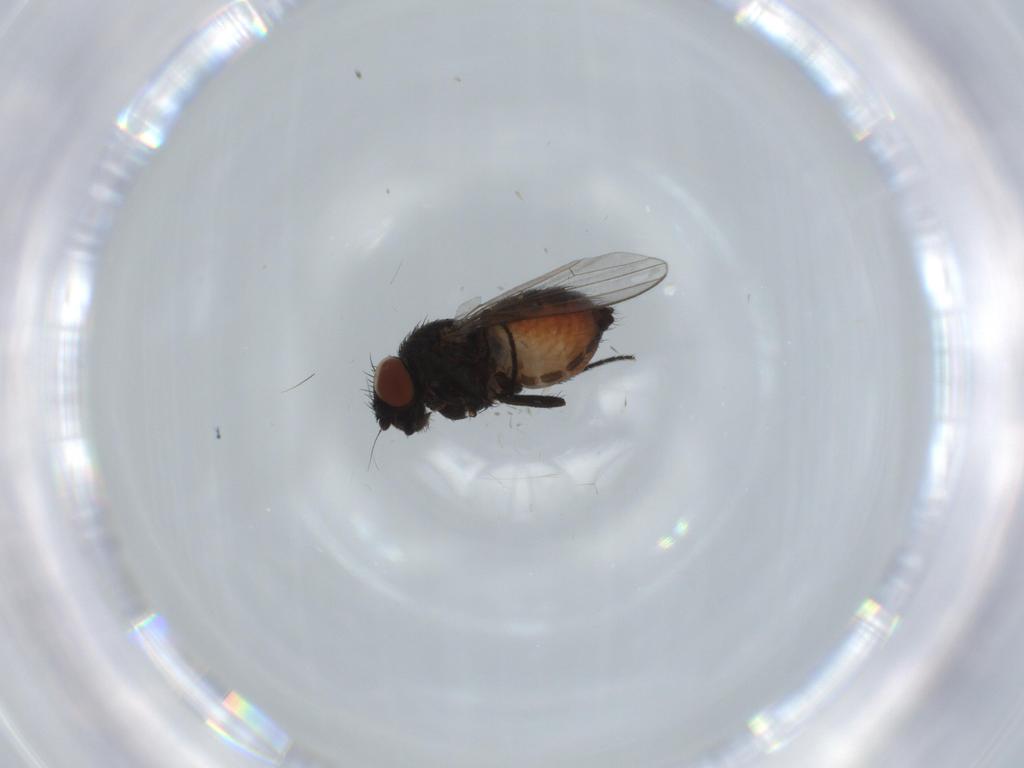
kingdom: Animalia
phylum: Arthropoda
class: Insecta
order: Diptera
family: Milichiidae
